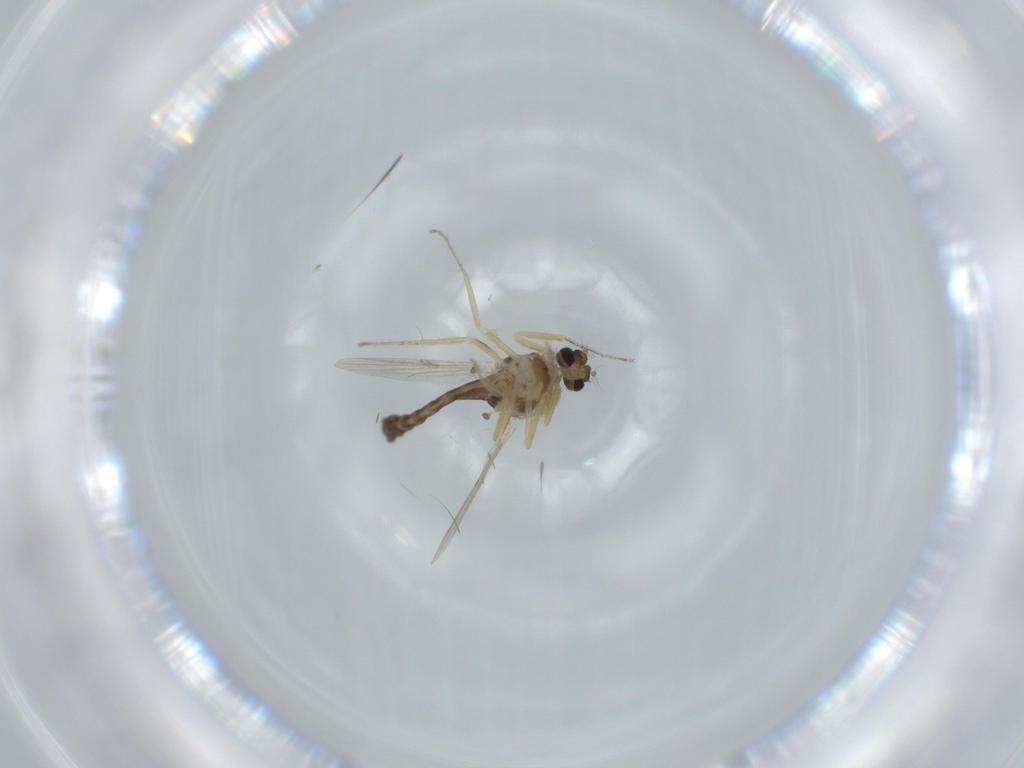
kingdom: Animalia
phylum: Arthropoda
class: Insecta
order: Diptera
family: Ceratopogonidae
